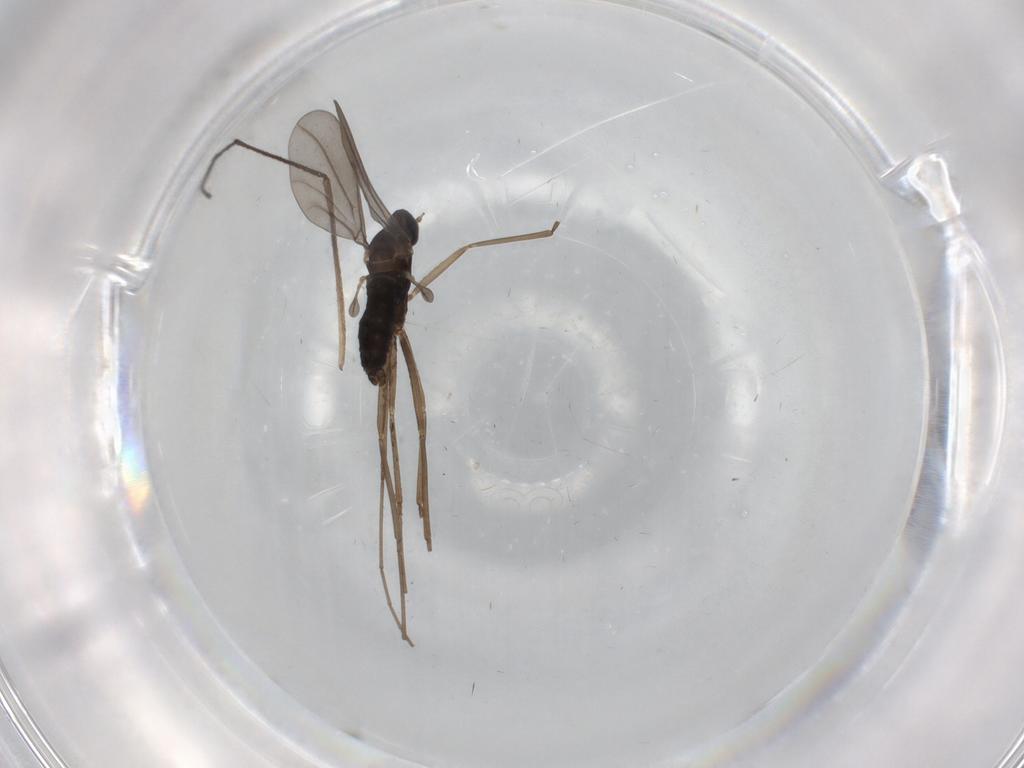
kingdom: Animalia
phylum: Arthropoda
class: Insecta
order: Diptera
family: Cecidomyiidae
